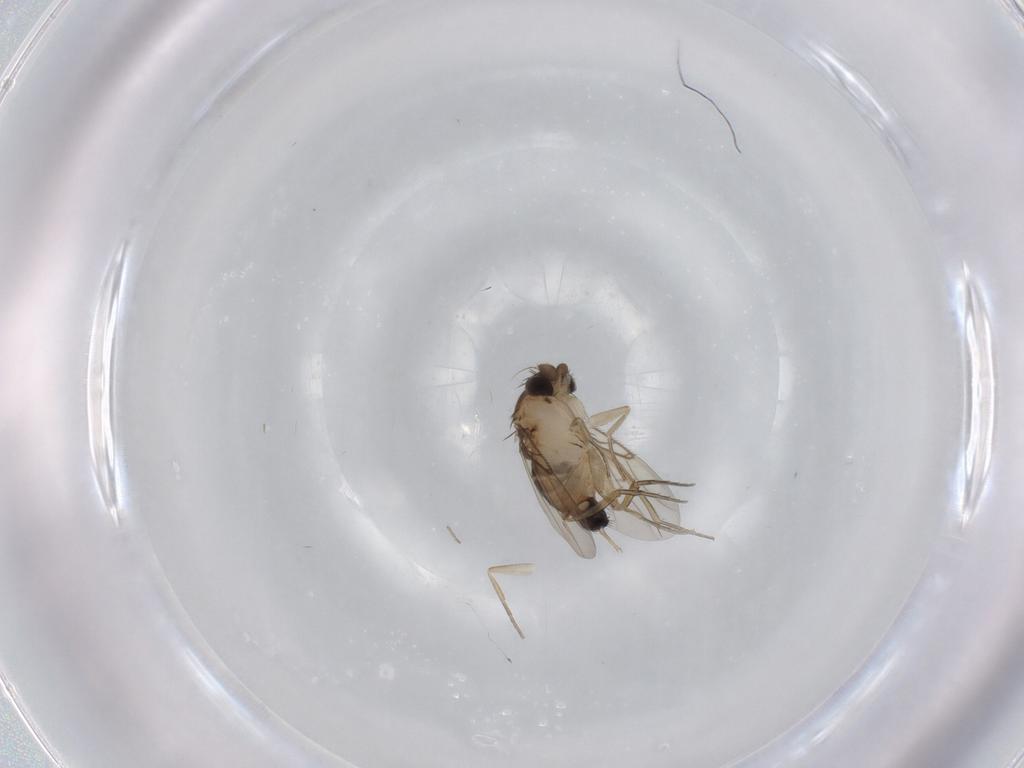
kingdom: Animalia
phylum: Arthropoda
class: Insecta
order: Diptera
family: Phoridae
